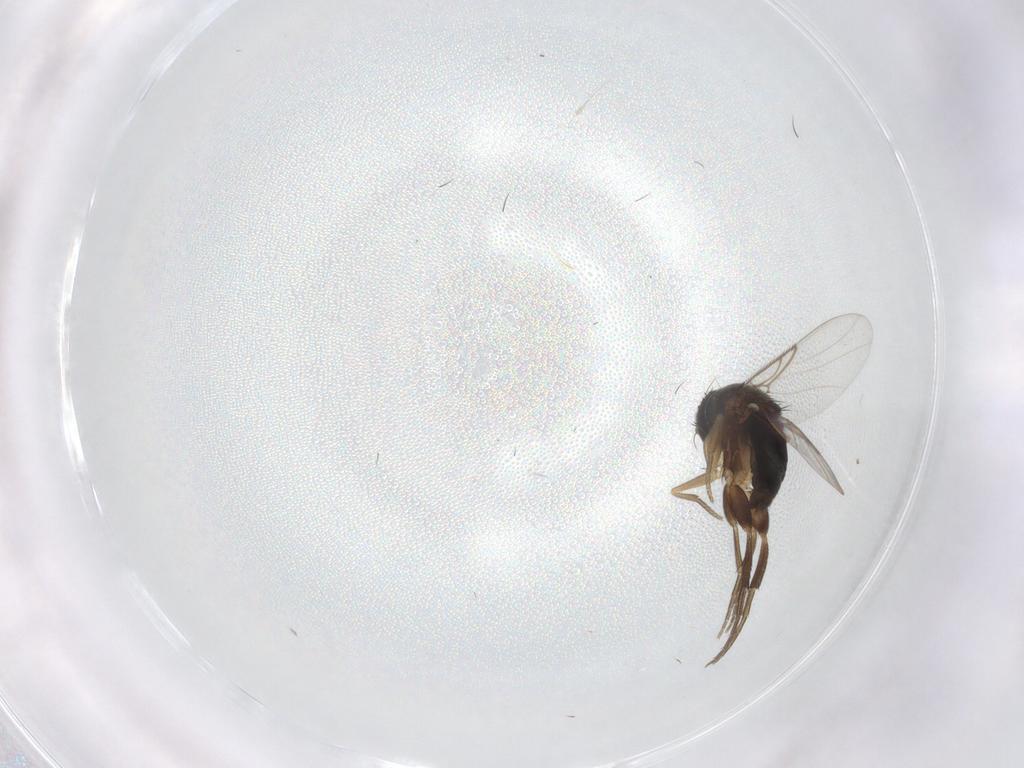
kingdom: Animalia
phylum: Arthropoda
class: Insecta
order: Diptera
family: Phoridae
